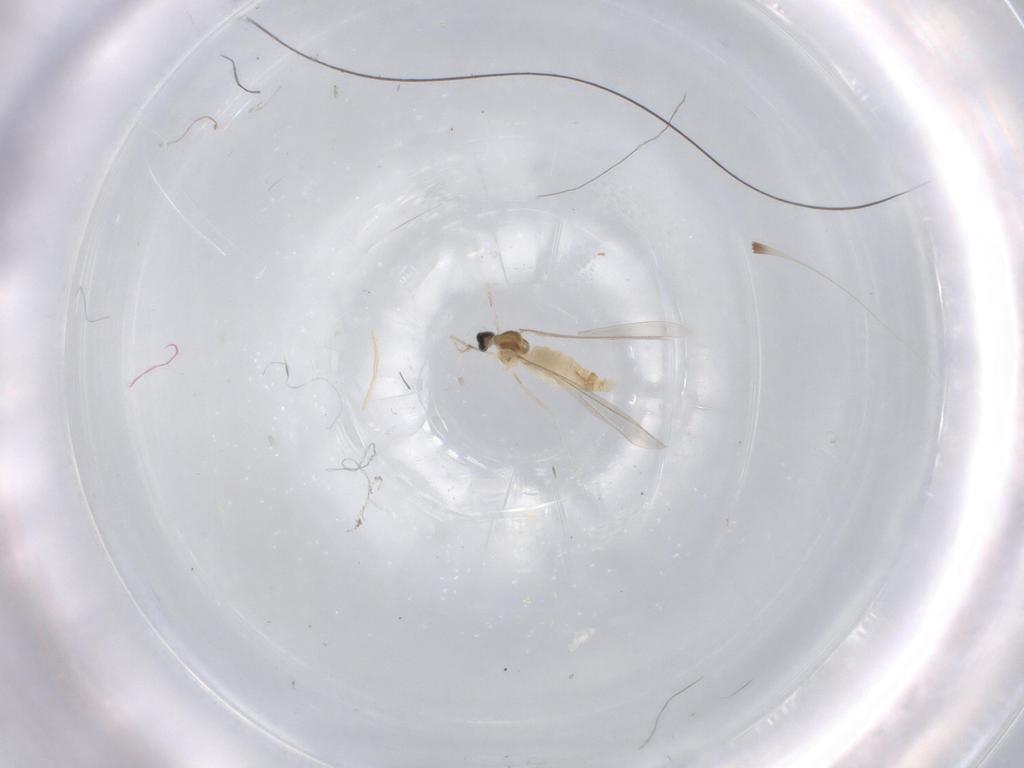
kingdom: Animalia
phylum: Arthropoda
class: Insecta
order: Diptera
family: Cecidomyiidae
